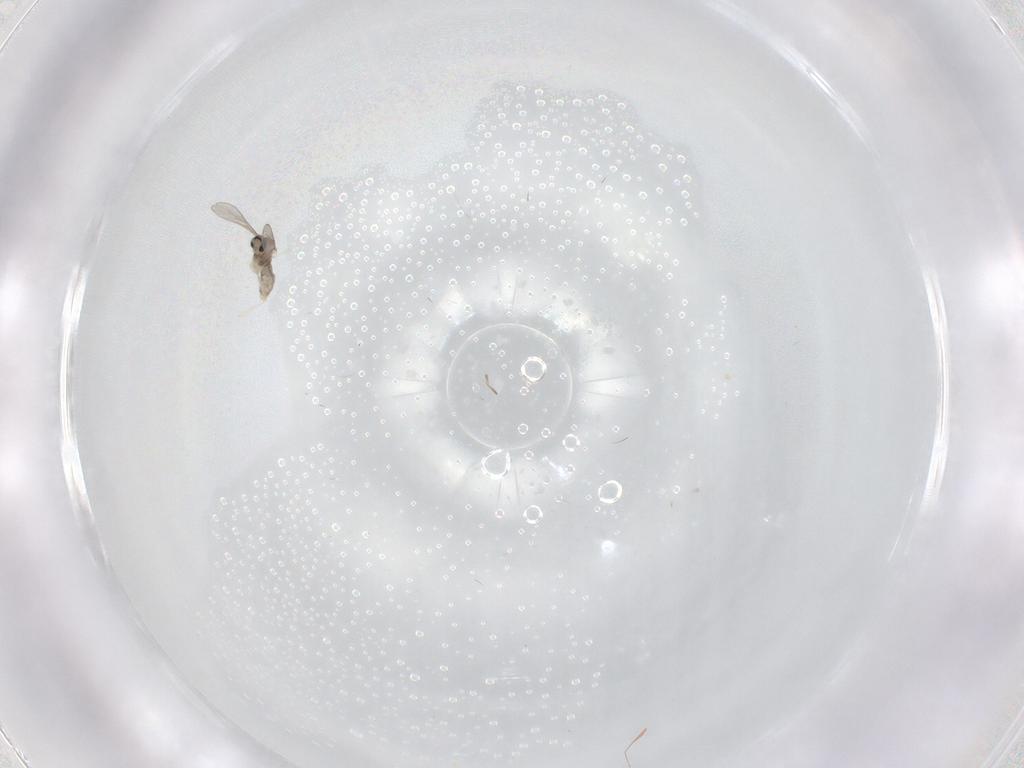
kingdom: Animalia
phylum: Arthropoda
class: Insecta
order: Diptera
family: Cecidomyiidae
